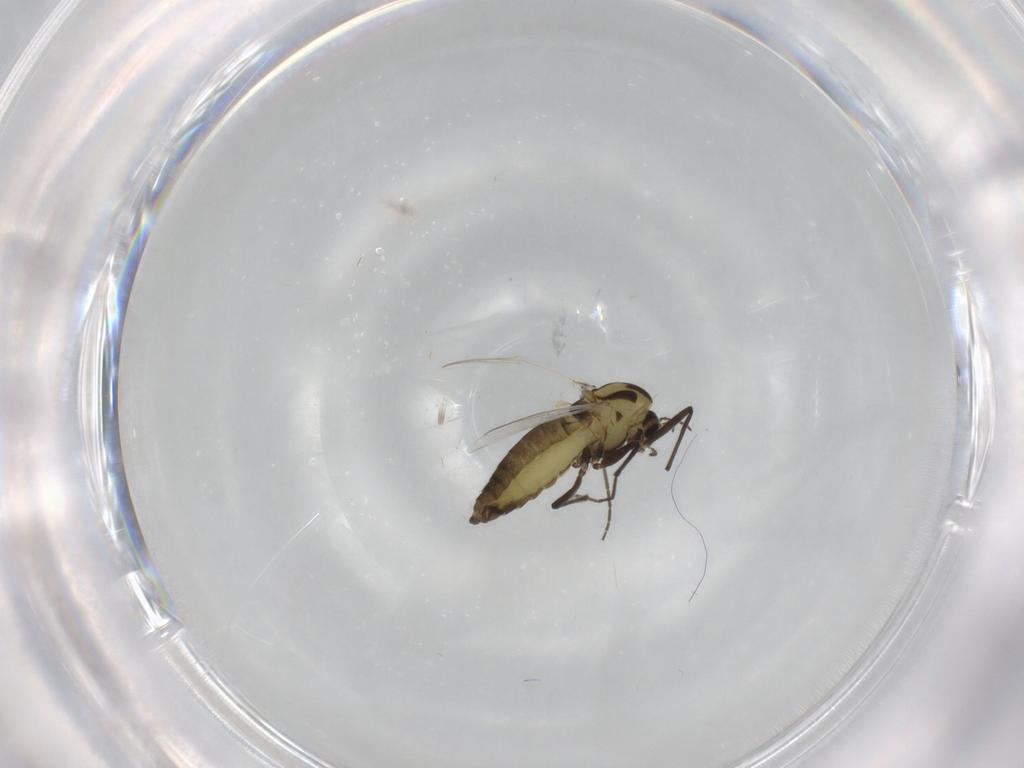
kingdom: Animalia
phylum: Arthropoda
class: Insecta
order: Diptera
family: Chironomidae
